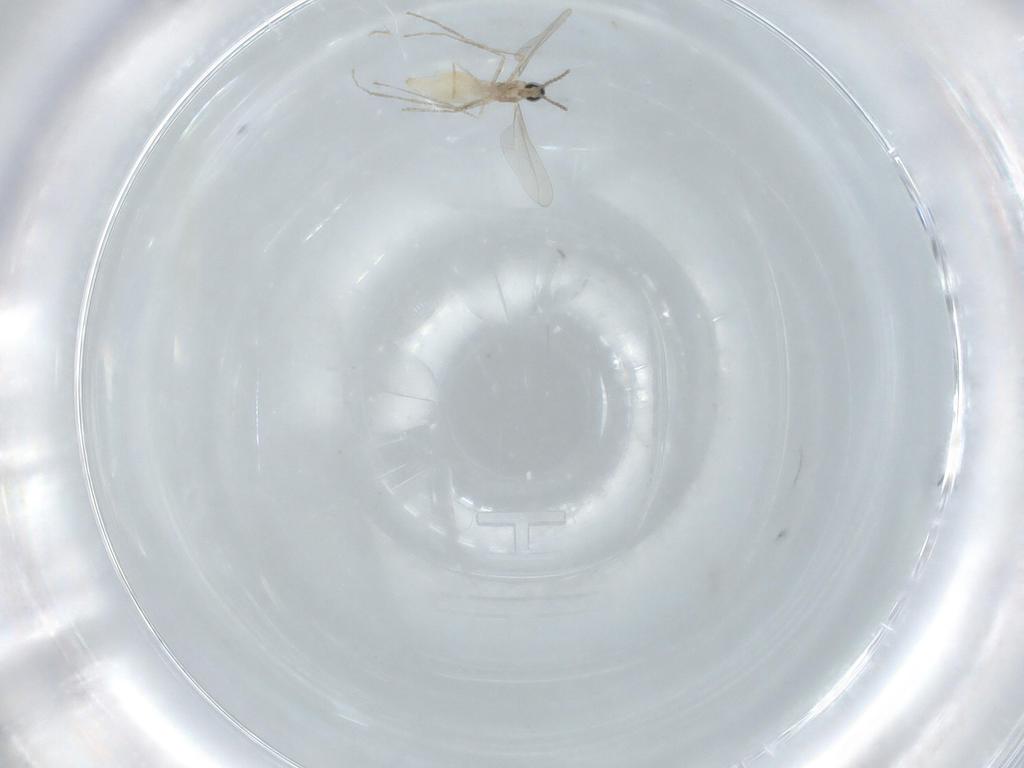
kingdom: Animalia
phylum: Arthropoda
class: Insecta
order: Diptera
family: Cecidomyiidae
